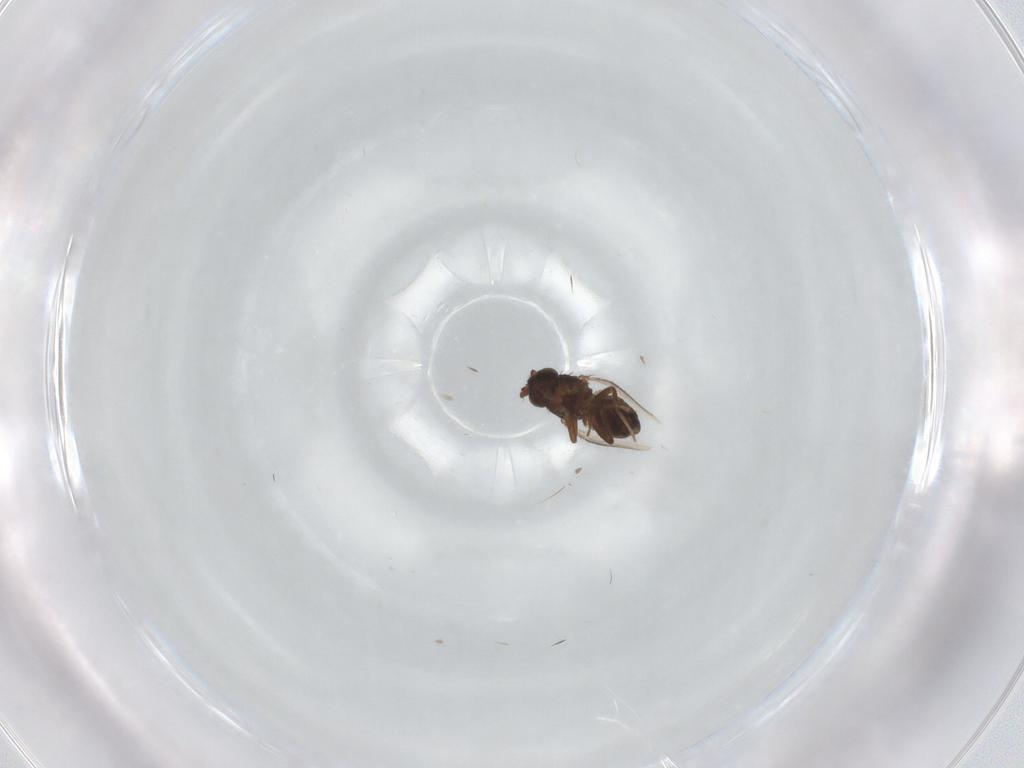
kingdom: Animalia
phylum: Arthropoda
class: Insecta
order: Diptera
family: Sphaeroceridae
